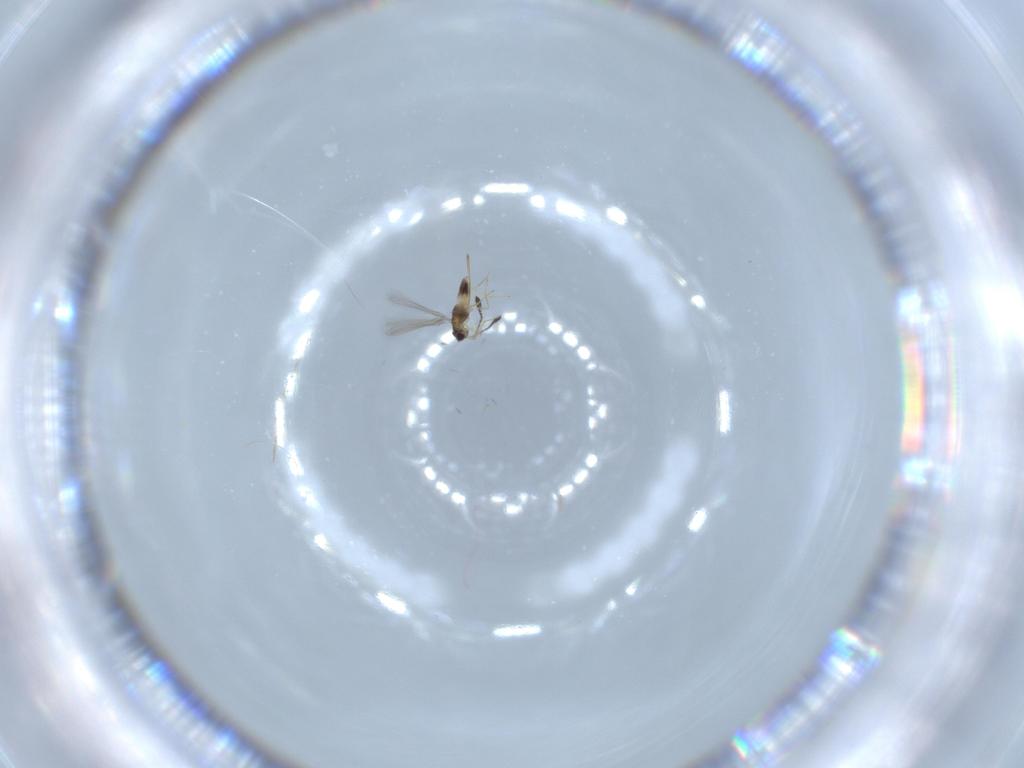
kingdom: Animalia
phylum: Arthropoda
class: Insecta
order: Hymenoptera
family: Mymaridae
